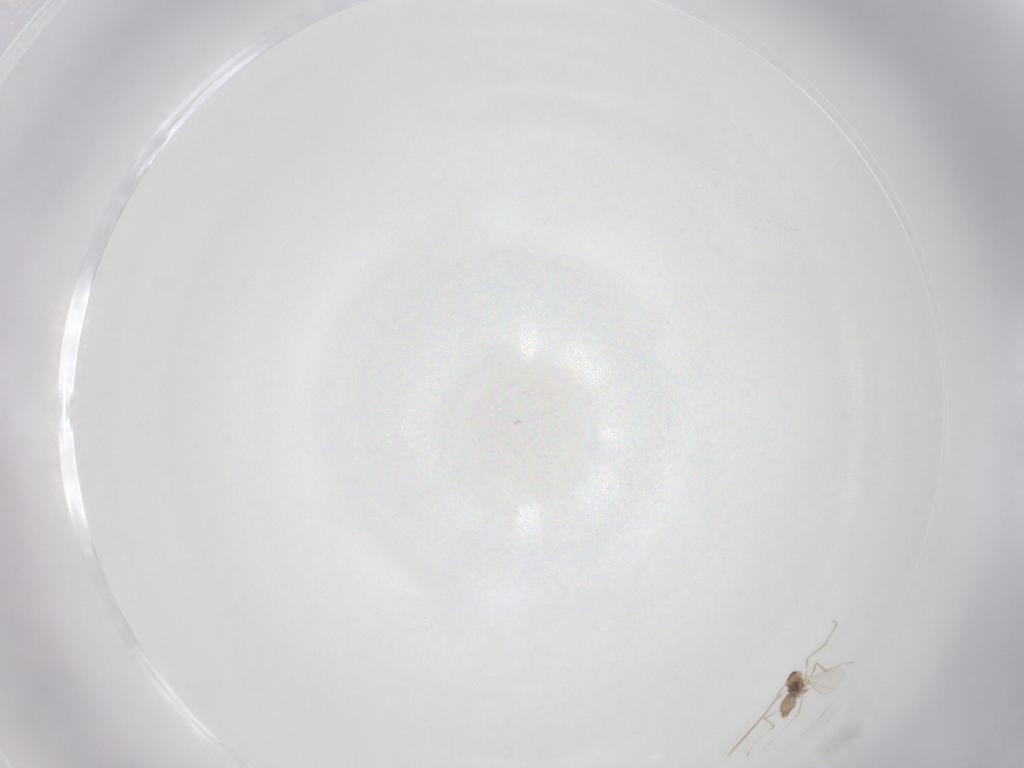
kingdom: Animalia
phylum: Arthropoda
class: Insecta
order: Diptera
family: Cecidomyiidae
